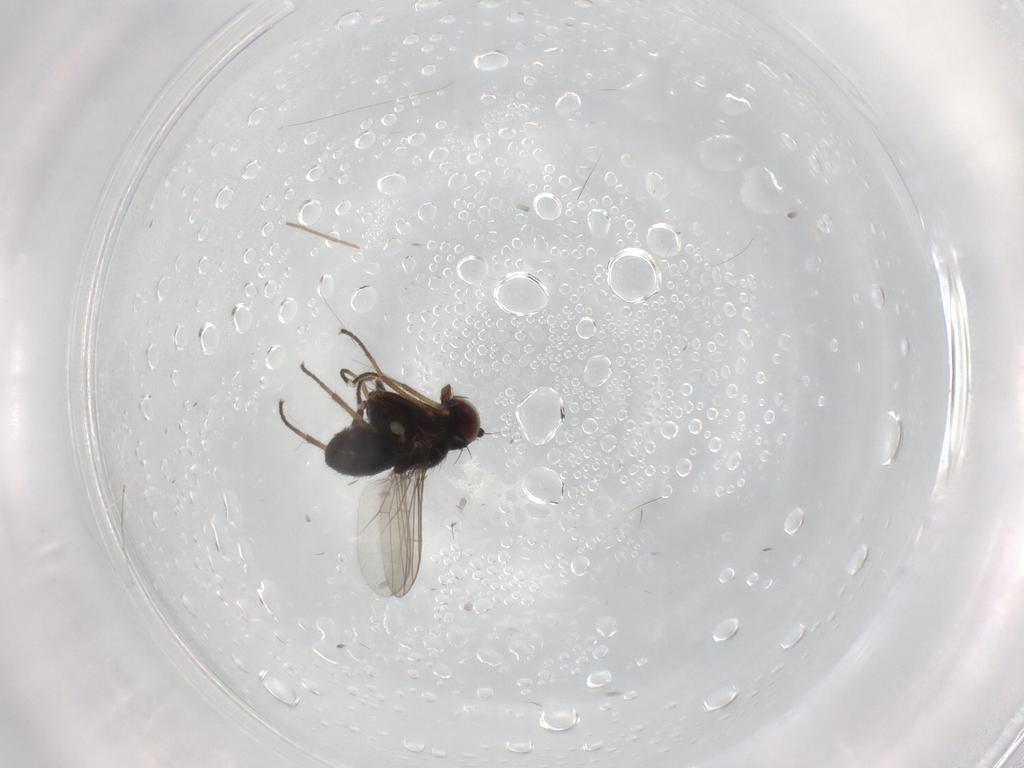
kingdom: Animalia
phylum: Arthropoda
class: Insecta
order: Diptera
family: Dolichopodidae
